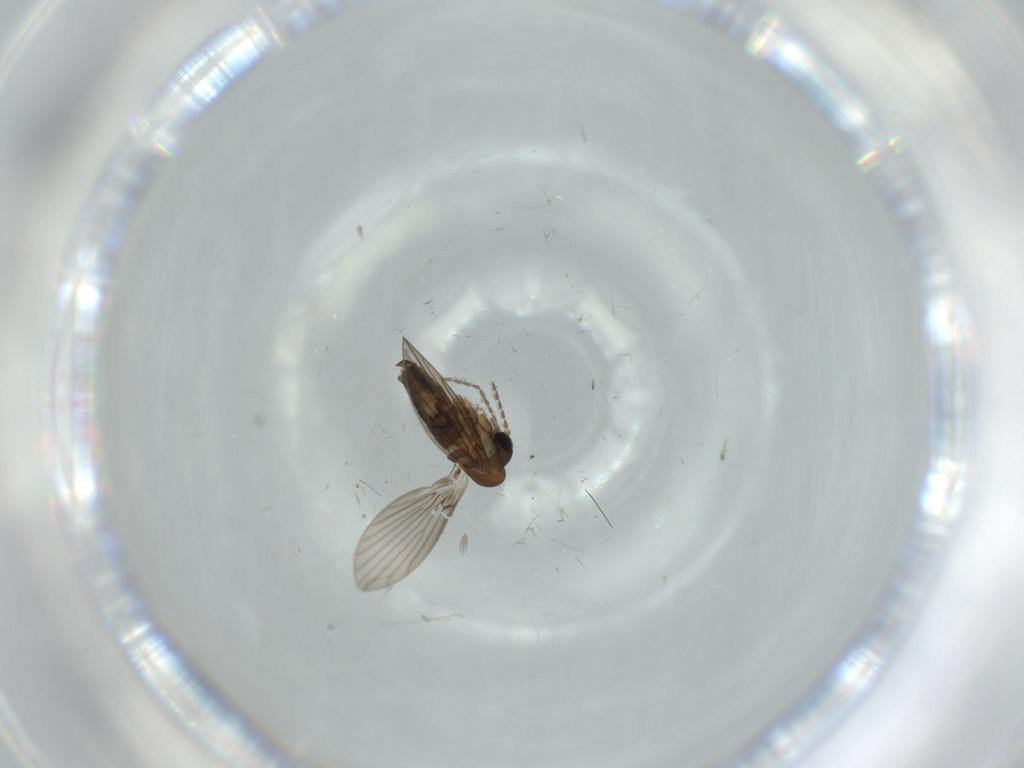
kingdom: Animalia
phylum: Arthropoda
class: Insecta
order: Diptera
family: Psychodidae
